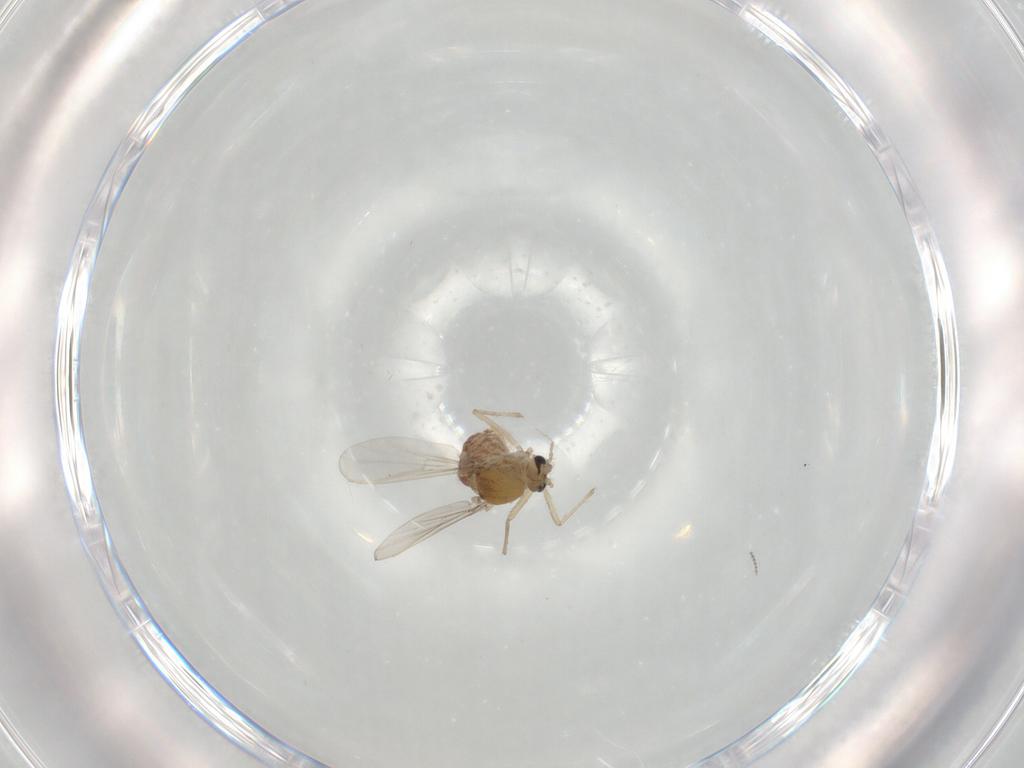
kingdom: Animalia
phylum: Arthropoda
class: Insecta
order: Diptera
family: Chironomidae
